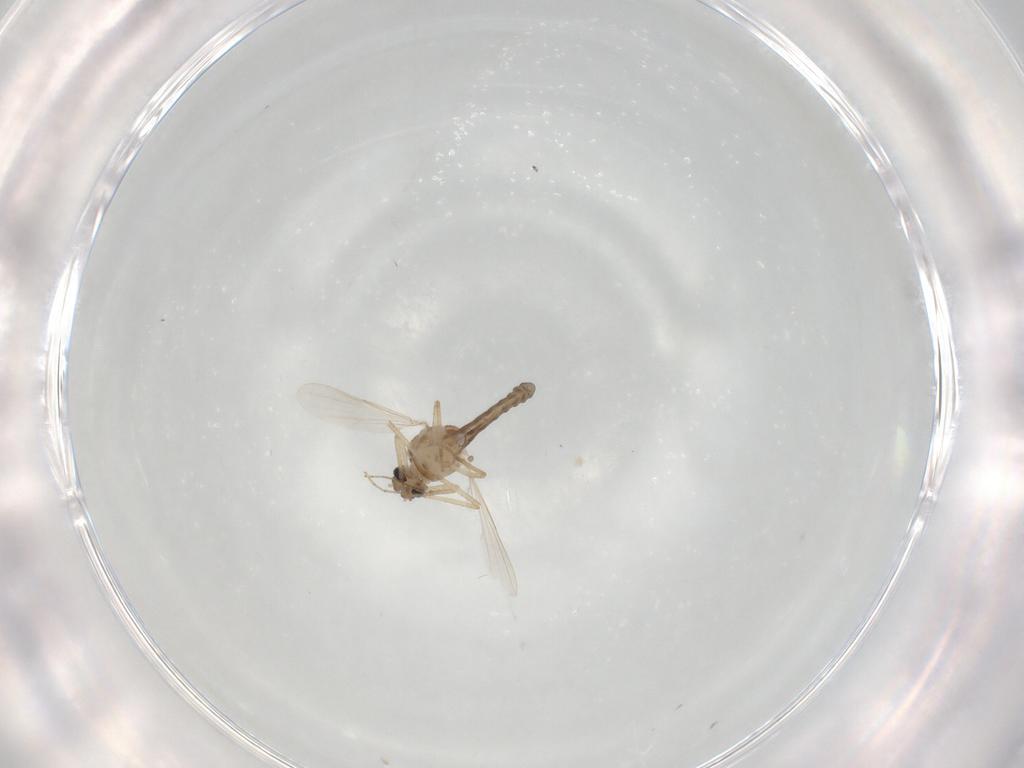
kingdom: Animalia
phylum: Arthropoda
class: Insecta
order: Diptera
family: Ceratopogonidae
